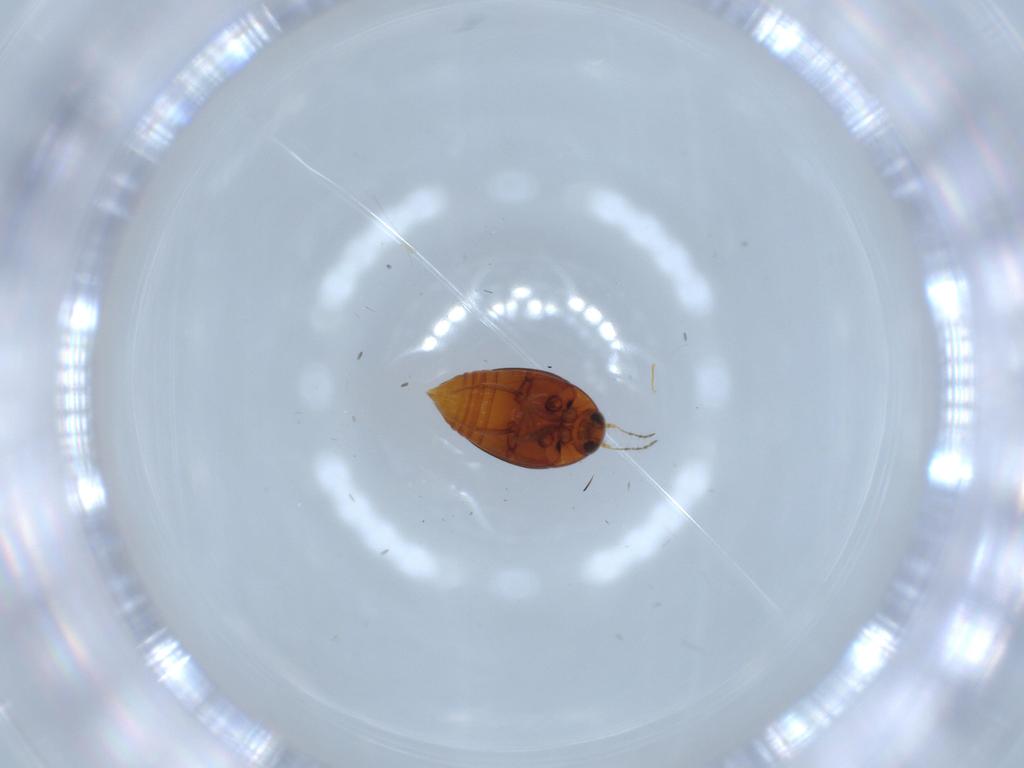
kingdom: Animalia
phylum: Arthropoda
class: Insecta
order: Coleoptera
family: Staphylinidae
